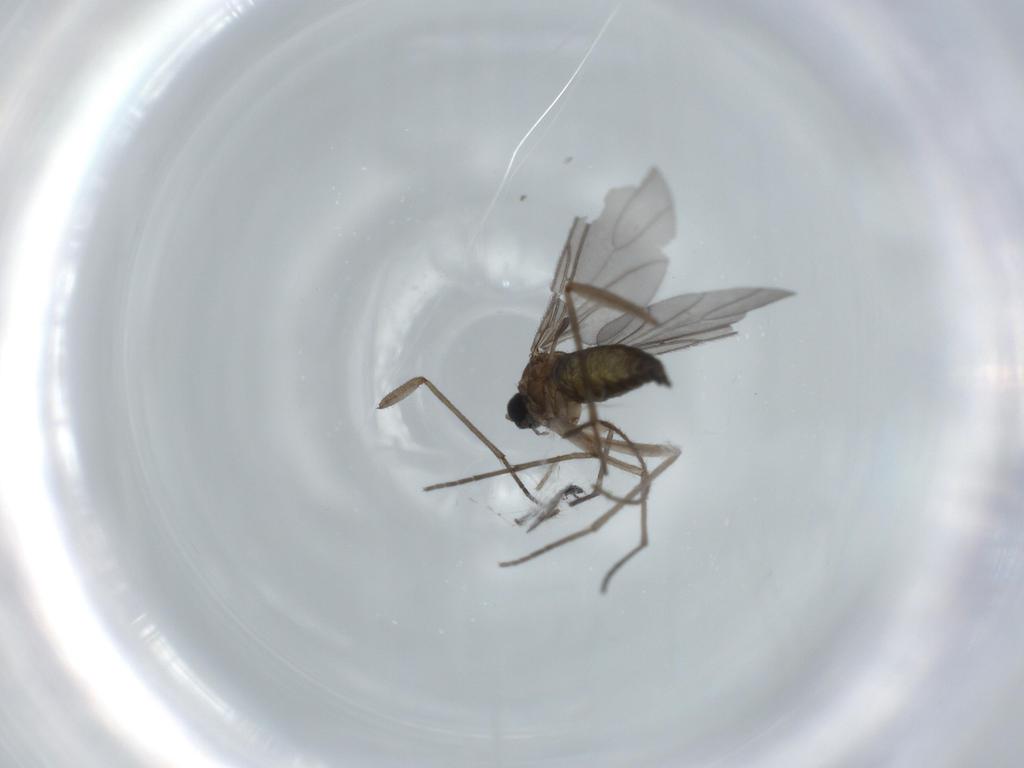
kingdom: Animalia
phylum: Arthropoda
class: Insecta
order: Diptera
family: Sciaridae
